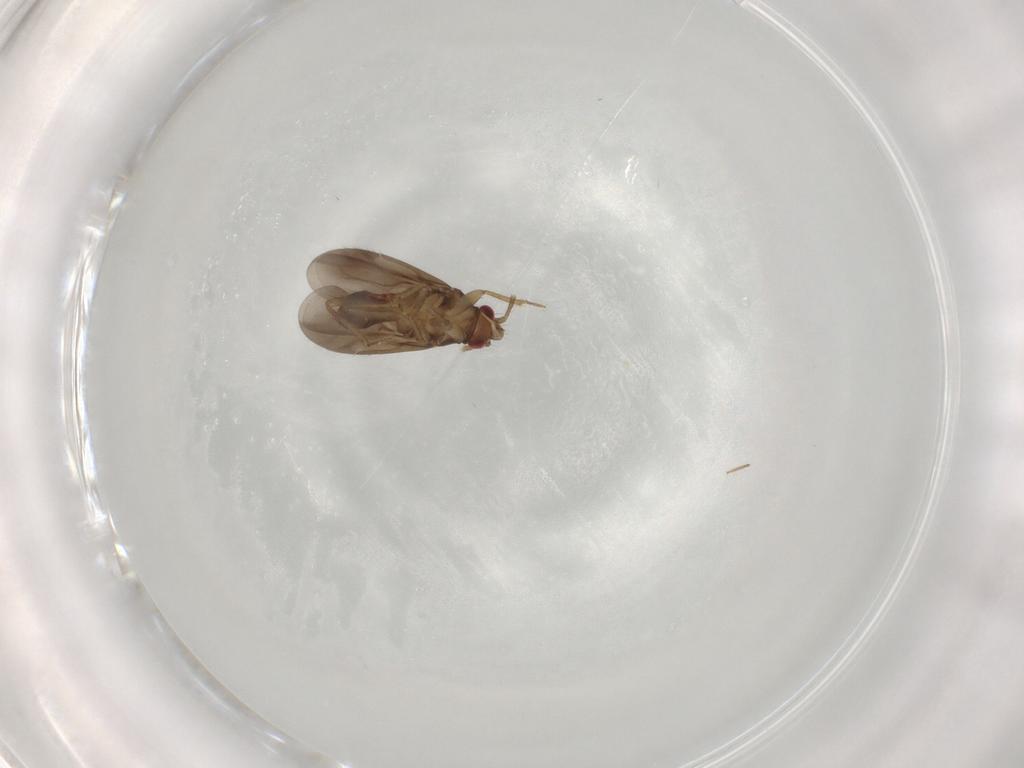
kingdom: Animalia
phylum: Arthropoda
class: Insecta
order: Hemiptera
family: Ceratocombidae
